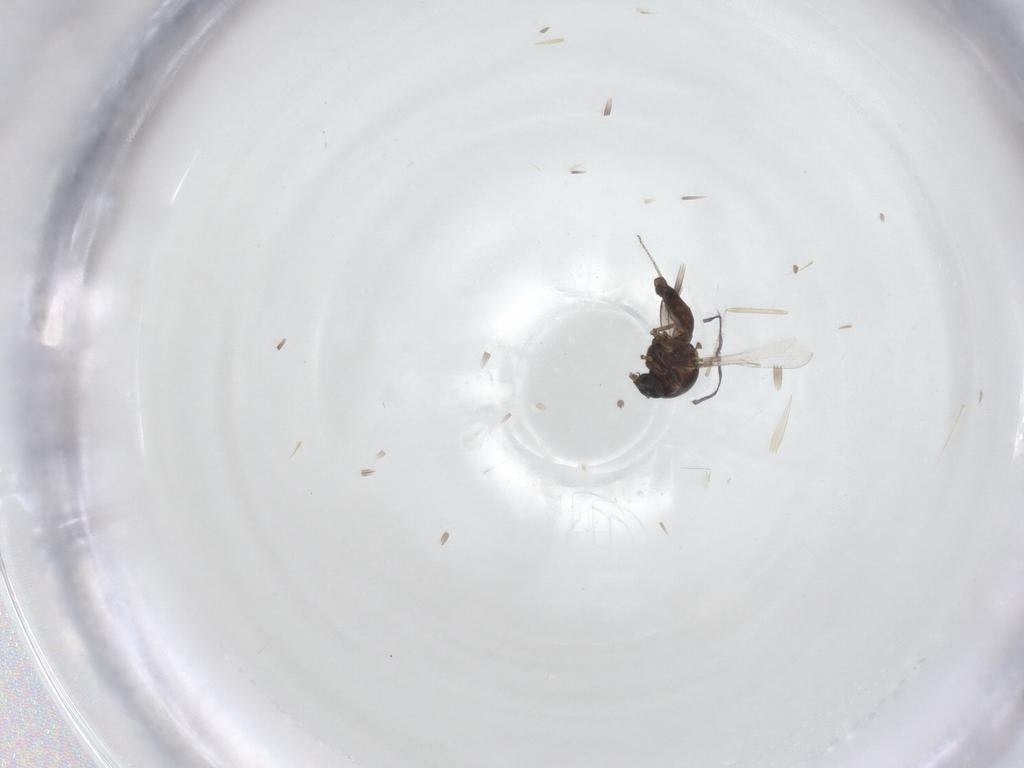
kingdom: Animalia
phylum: Arthropoda
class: Insecta
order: Diptera
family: Ceratopogonidae
